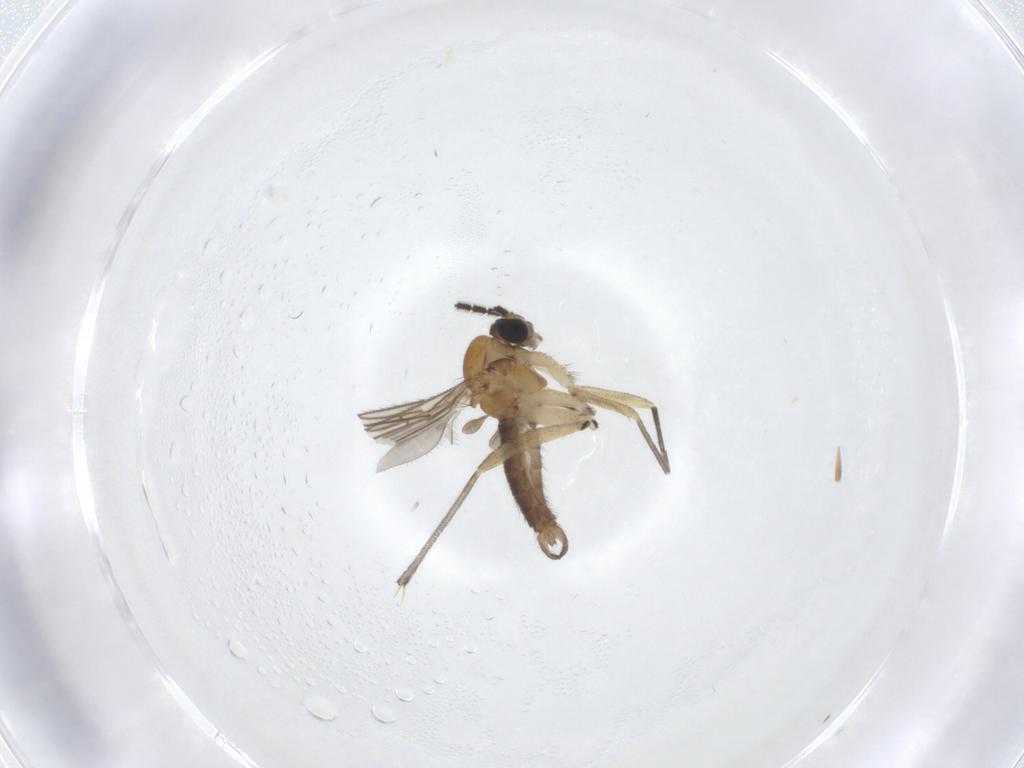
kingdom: Animalia
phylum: Arthropoda
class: Insecta
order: Diptera
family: Sciaridae
